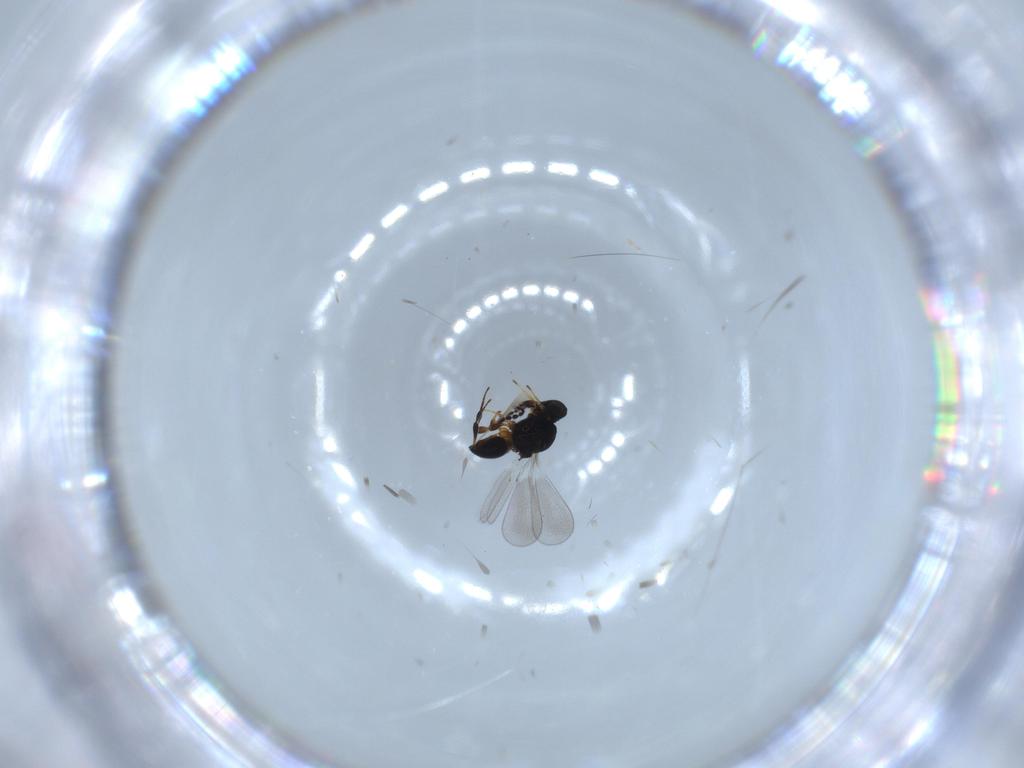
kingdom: Animalia
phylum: Arthropoda
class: Insecta
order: Hymenoptera
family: Platygastridae
